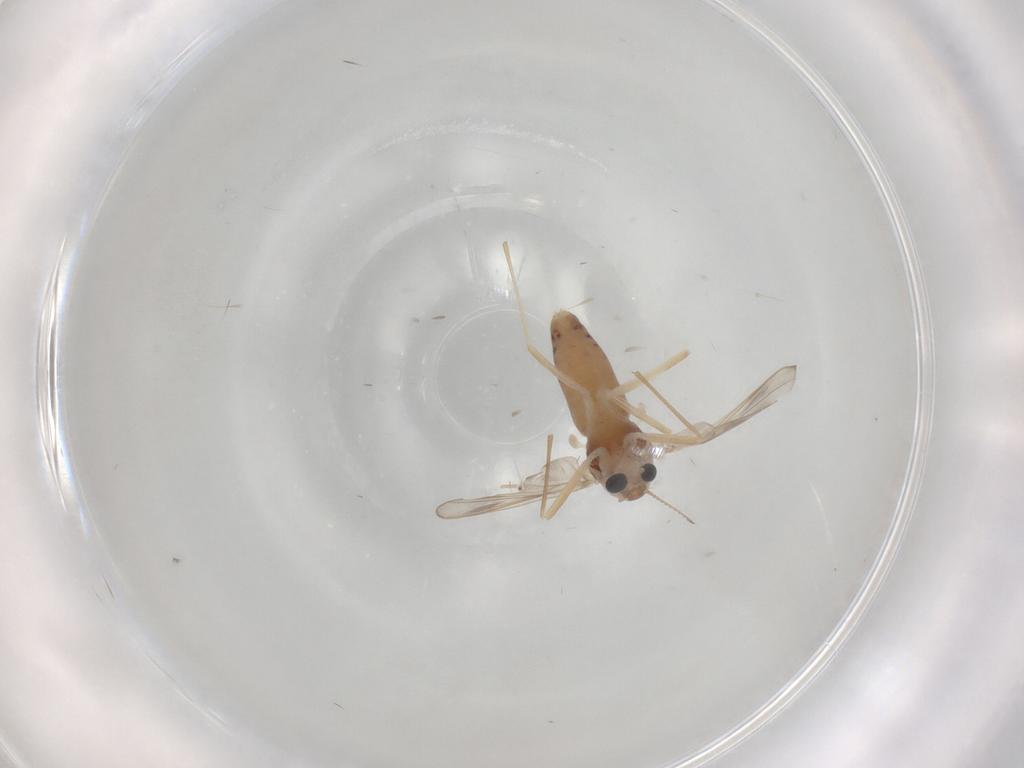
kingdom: Animalia
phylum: Arthropoda
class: Insecta
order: Diptera
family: Chironomidae
